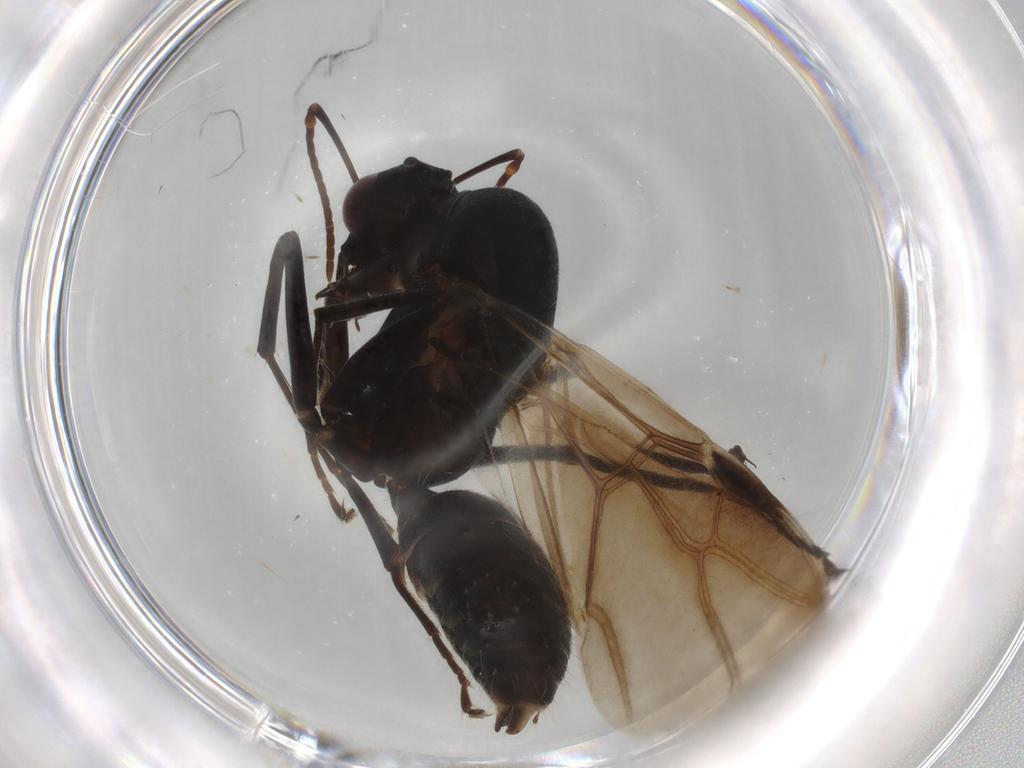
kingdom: Animalia
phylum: Arthropoda
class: Insecta
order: Hymenoptera
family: Formicidae
